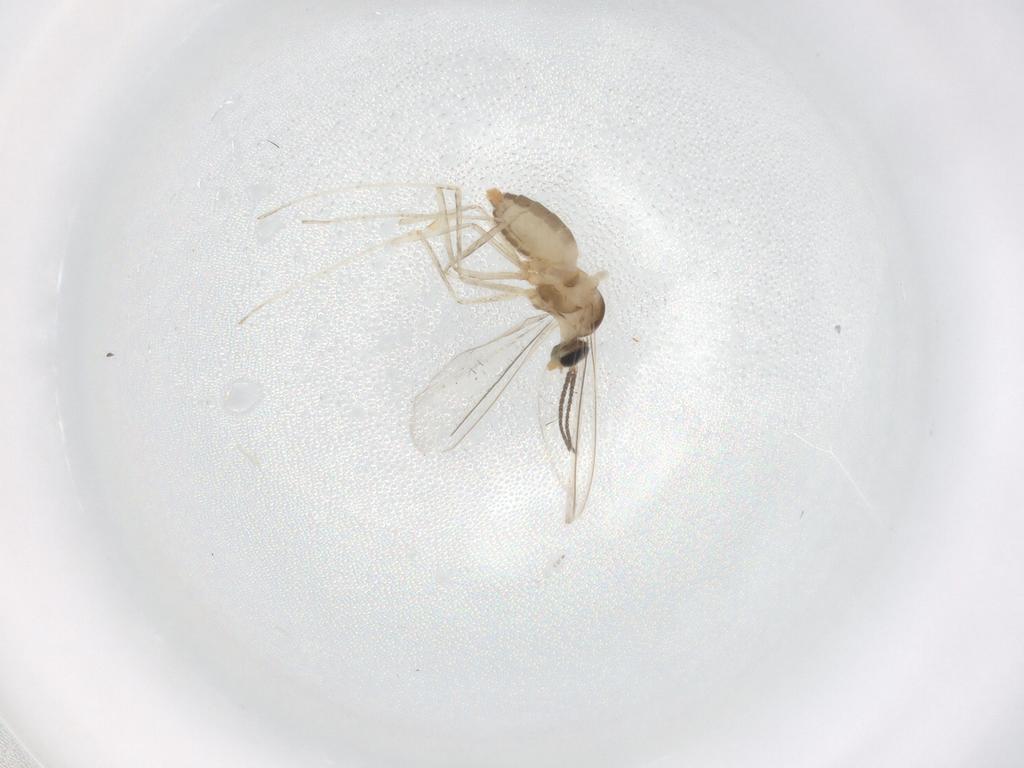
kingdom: Animalia
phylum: Arthropoda
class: Insecta
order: Diptera
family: Cecidomyiidae
